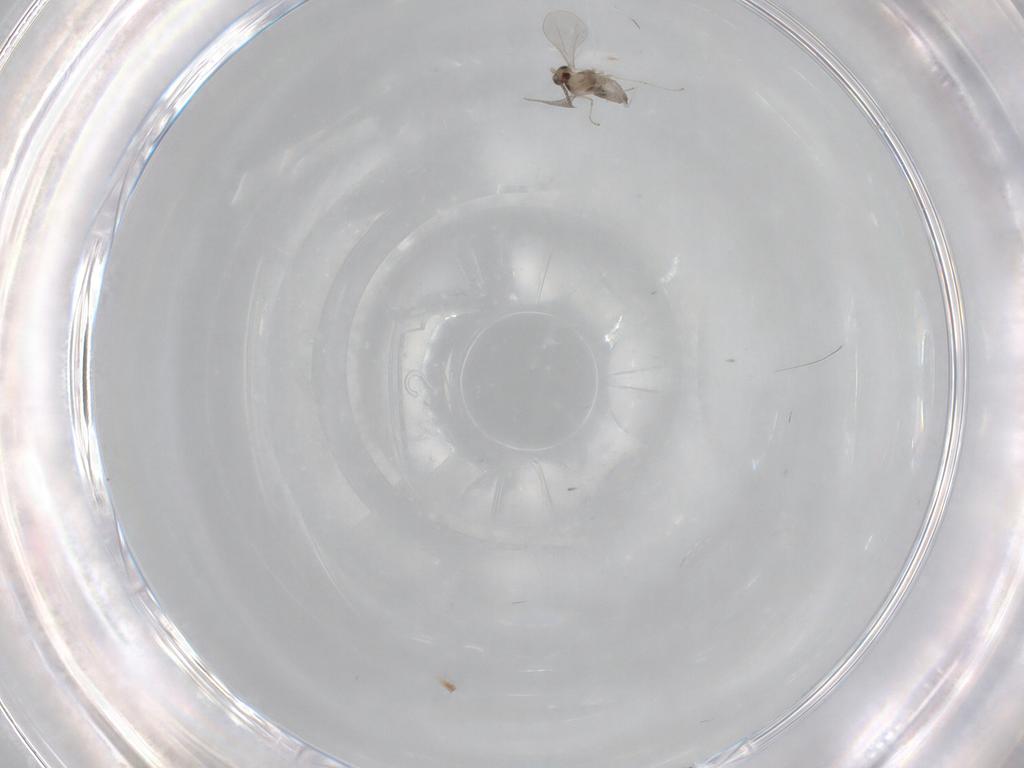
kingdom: Animalia
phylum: Arthropoda
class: Insecta
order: Diptera
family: Cecidomyiidae
